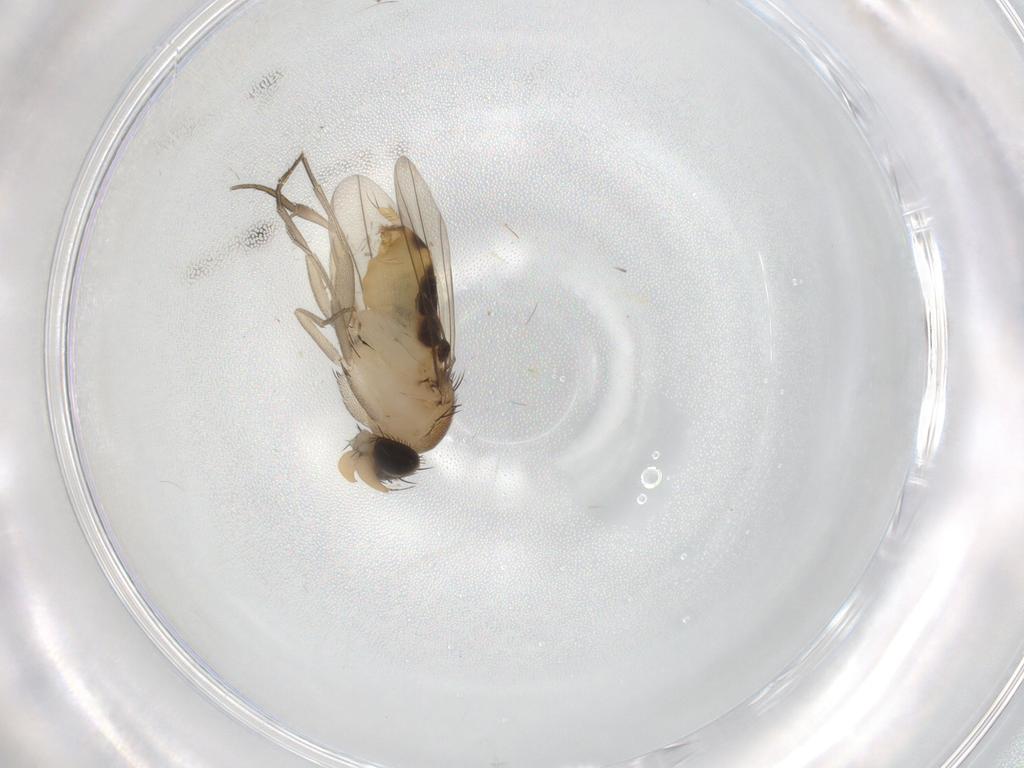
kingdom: Animalia
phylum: Arthropoda
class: Insecta
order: Diptera
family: Phoridae
